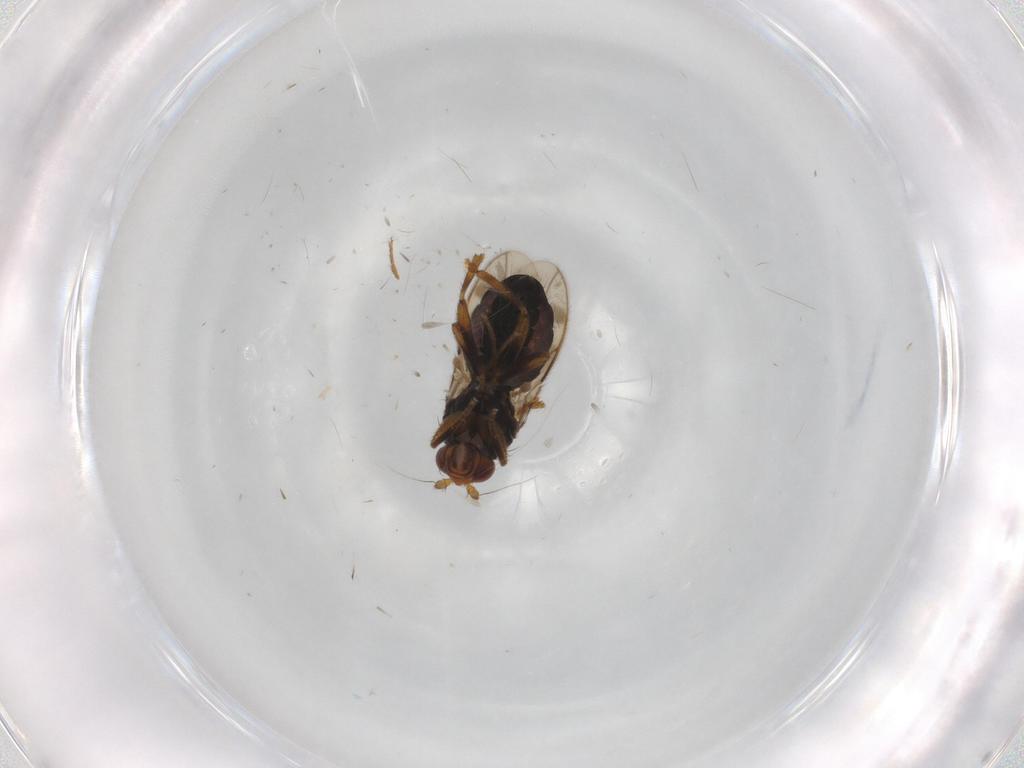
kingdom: Animalia
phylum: Arthropoda
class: Insecta
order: Diptera
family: Sphaeroceridae
